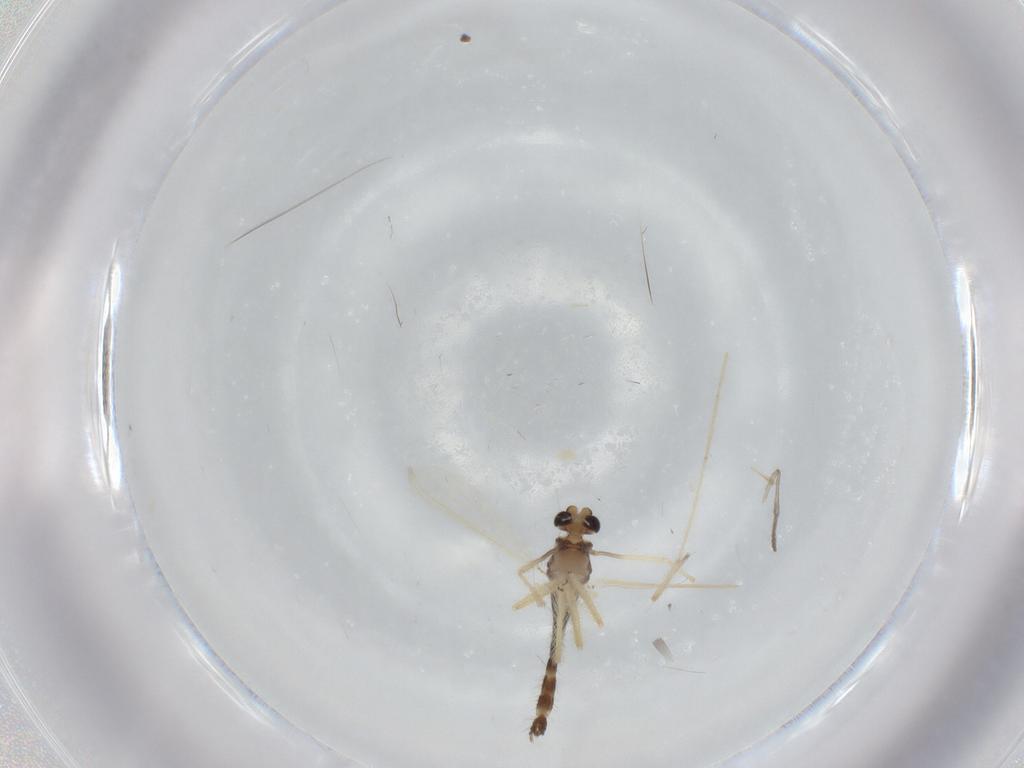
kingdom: Animalia
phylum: Arthropoda
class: Insecta
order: Diptera
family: Chironomidae
